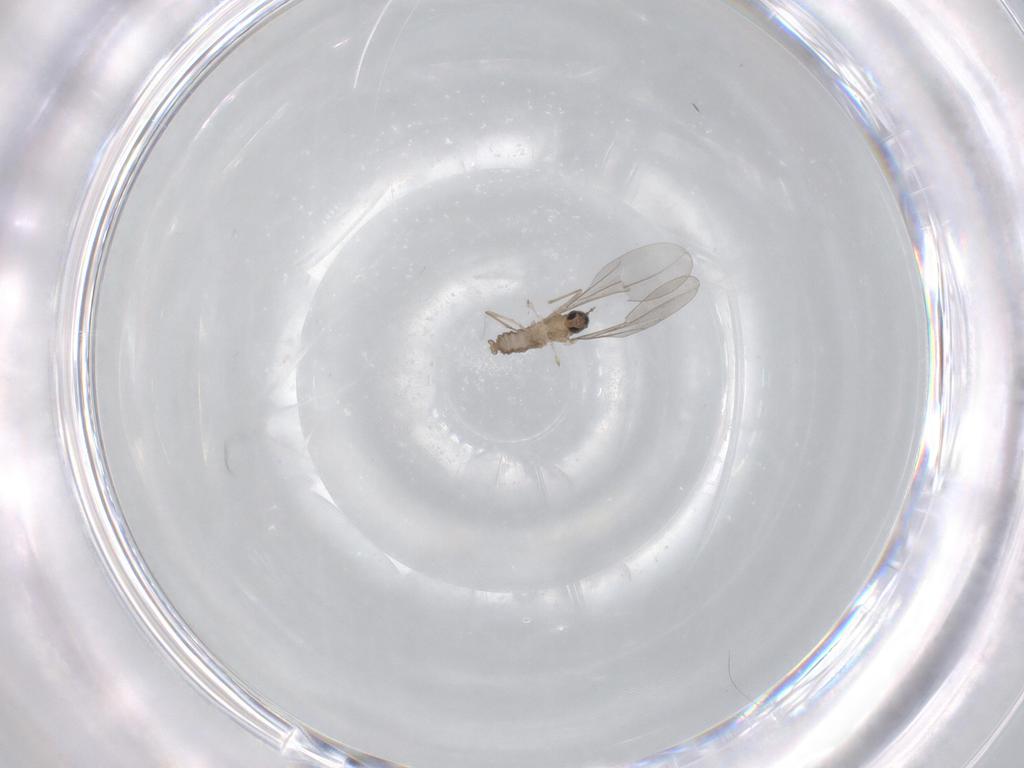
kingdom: Animalia
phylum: Arthropoda
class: Insecta
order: Diptera
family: Cecidomyiidae
